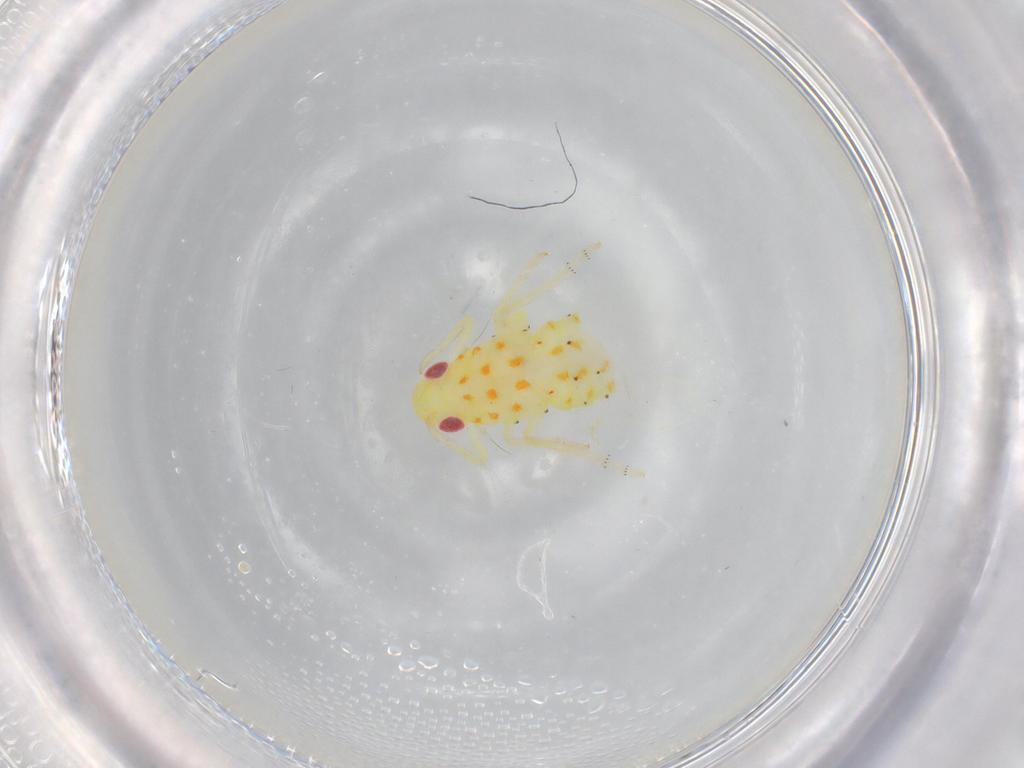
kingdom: Animalia
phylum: Arthropoda
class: Insecta
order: Hemiptera
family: Tropiduchidae
